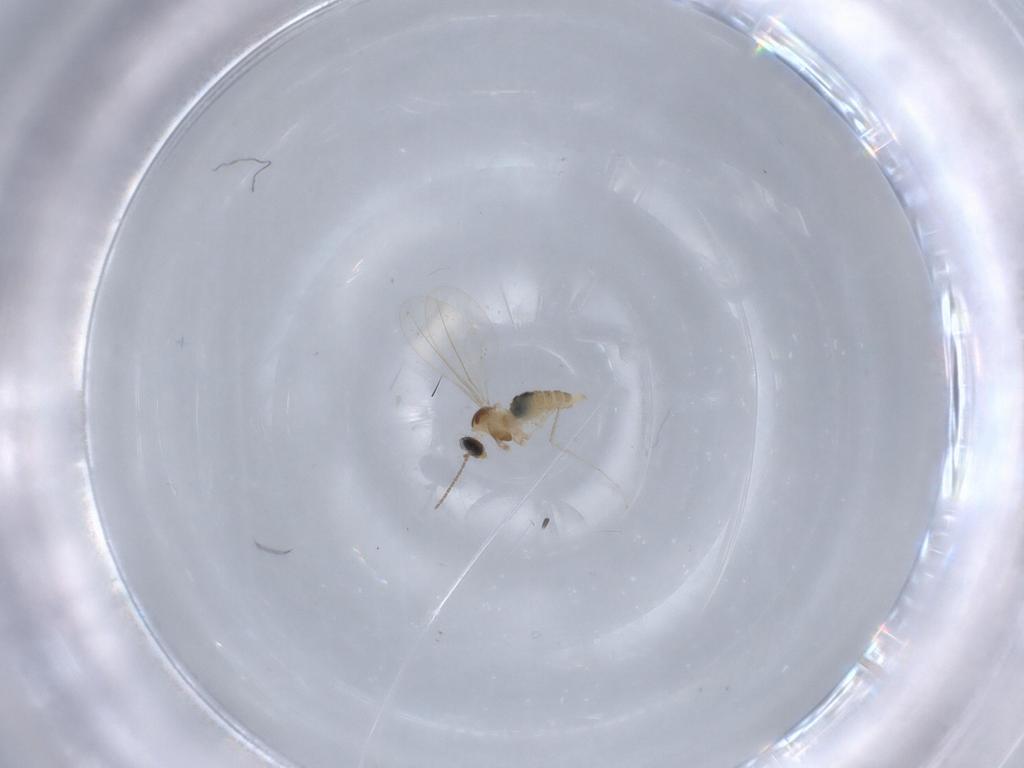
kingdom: Animalia
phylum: Arthropoda
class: Insecta
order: Diptera
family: Cecidomyiidae
